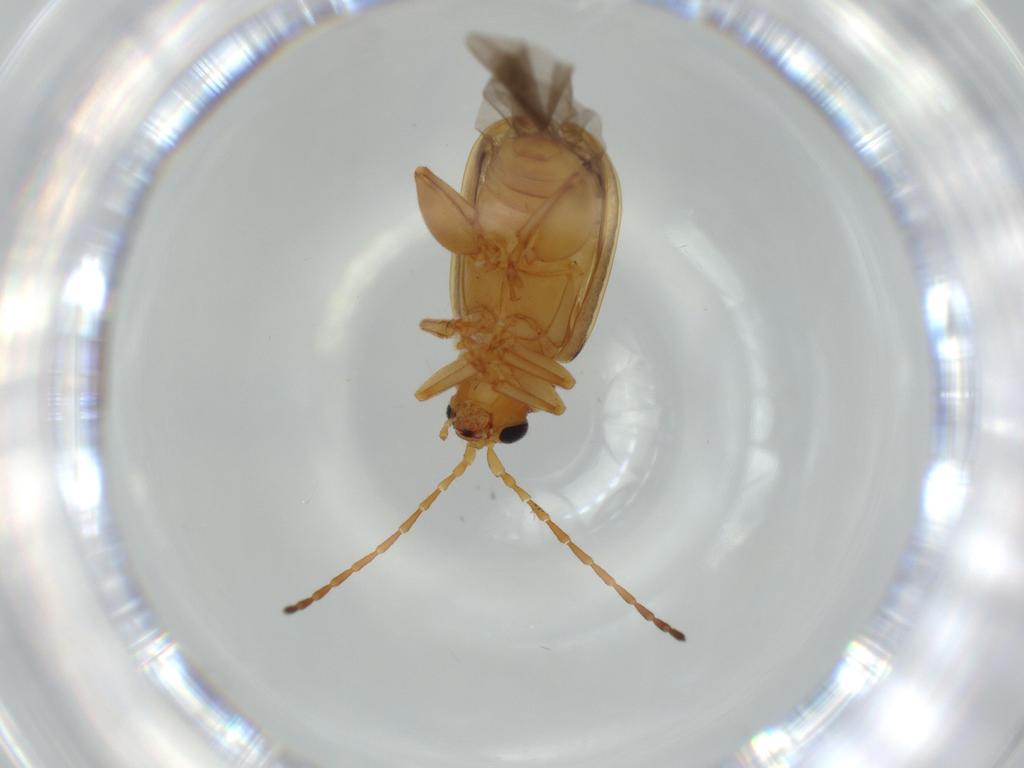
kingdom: Animalia
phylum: Arthropoda
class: Insecta
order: Coleoptera
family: Chrysomelidae
